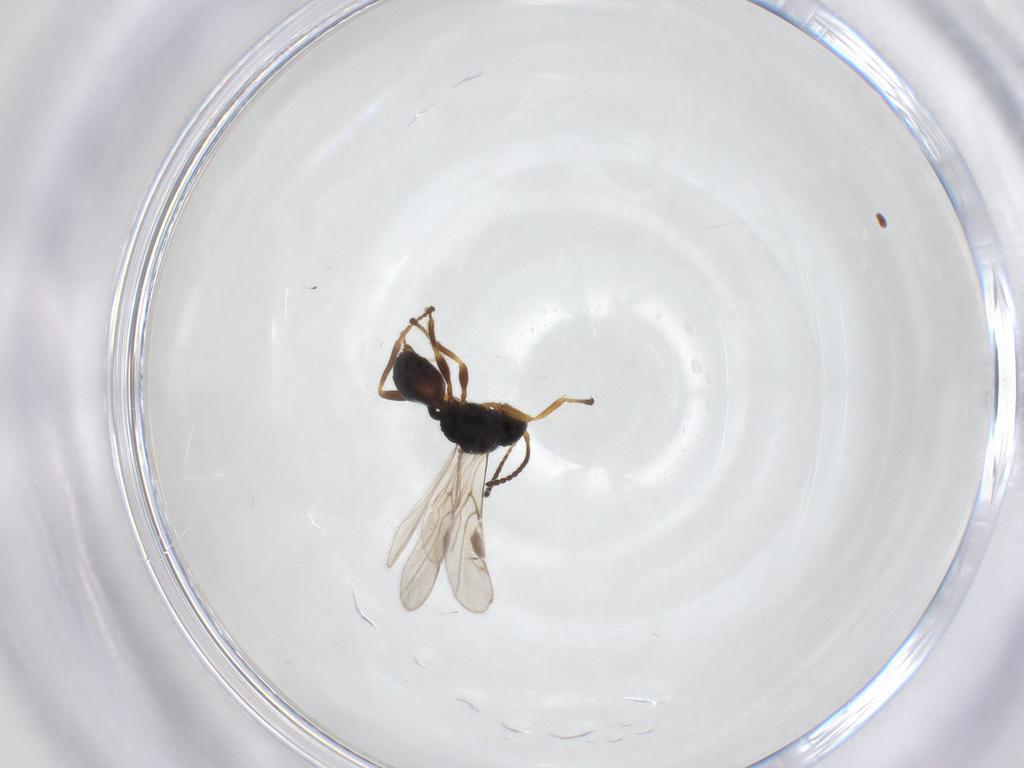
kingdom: Animalia
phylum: Arthropoda
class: Insecta
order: Hymenoptera
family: Braconidae
